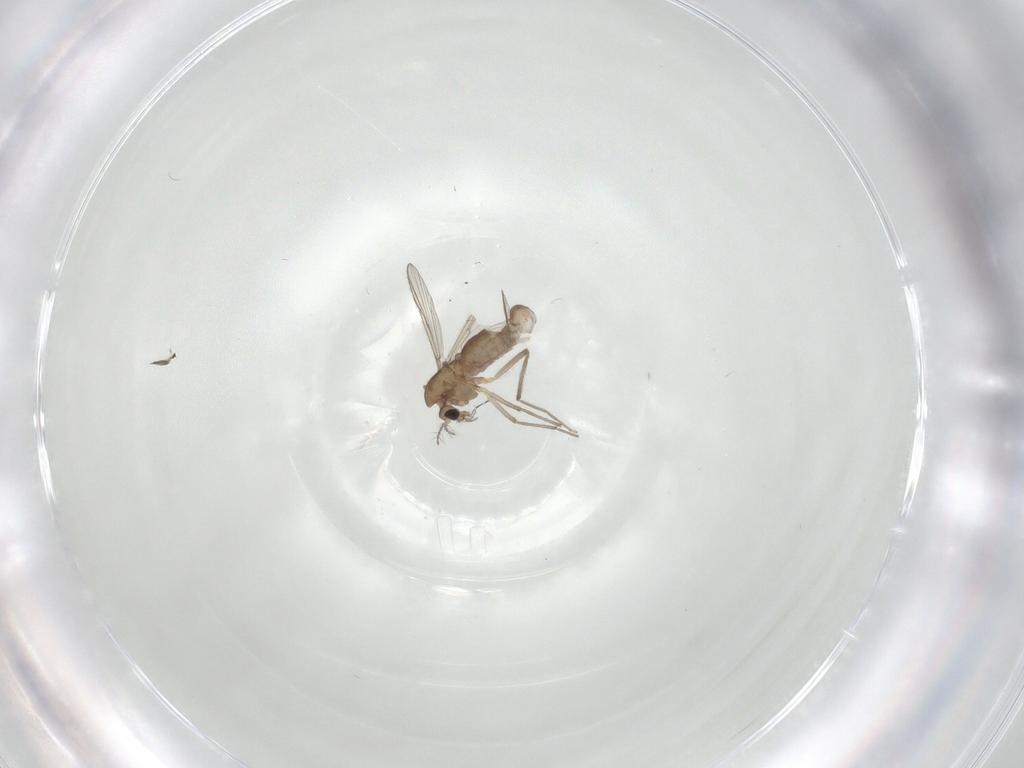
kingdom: Animalia
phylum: Arthropoda
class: Insecta
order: Diptera
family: Chironomidae
